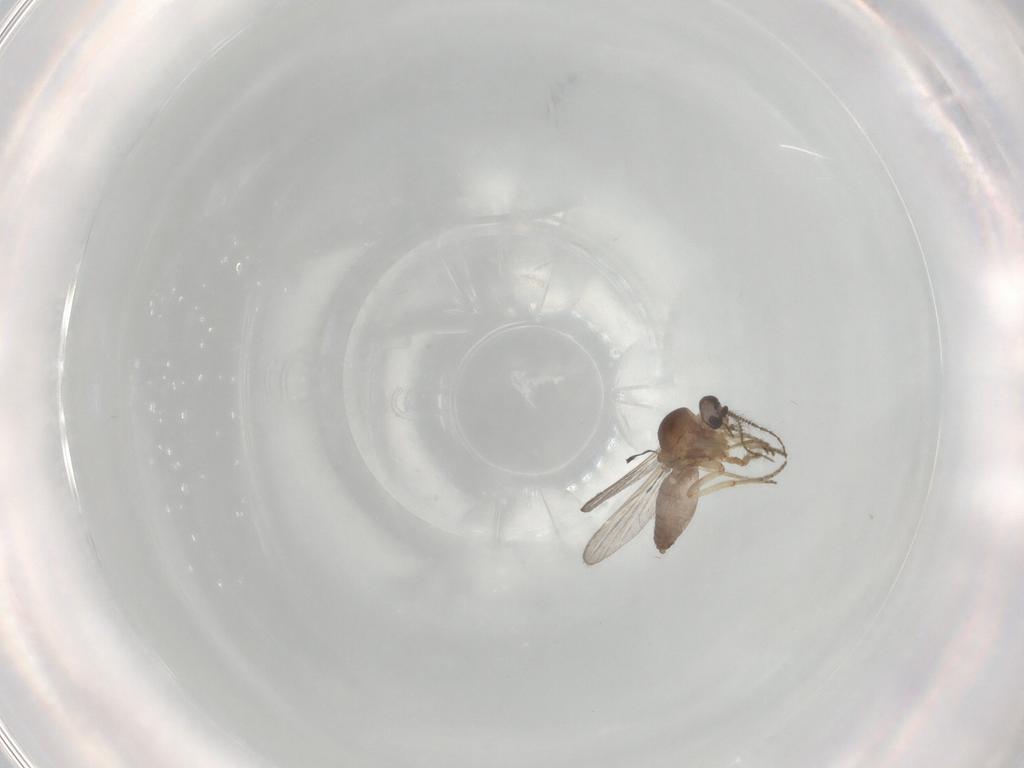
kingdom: Animalia
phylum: Arthropoda
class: Insecta
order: Diptera
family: Ceratopogonidae
